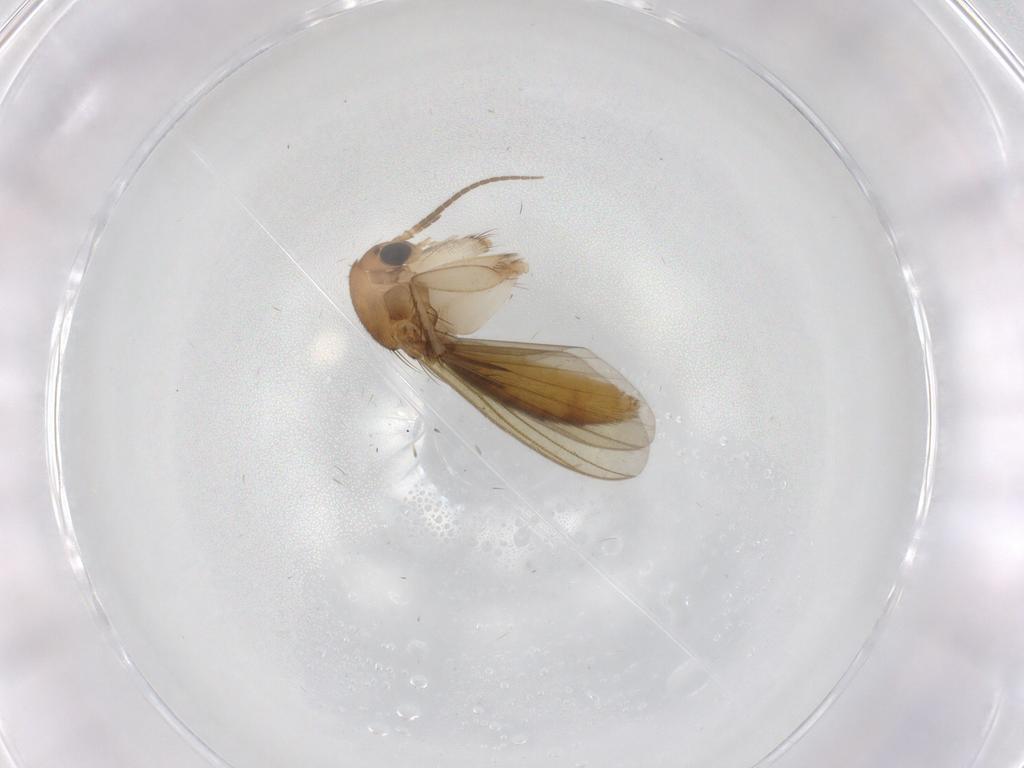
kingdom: Animalia
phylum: Arthropoda
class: Insecta
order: Diptera
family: Mycetophilidae
